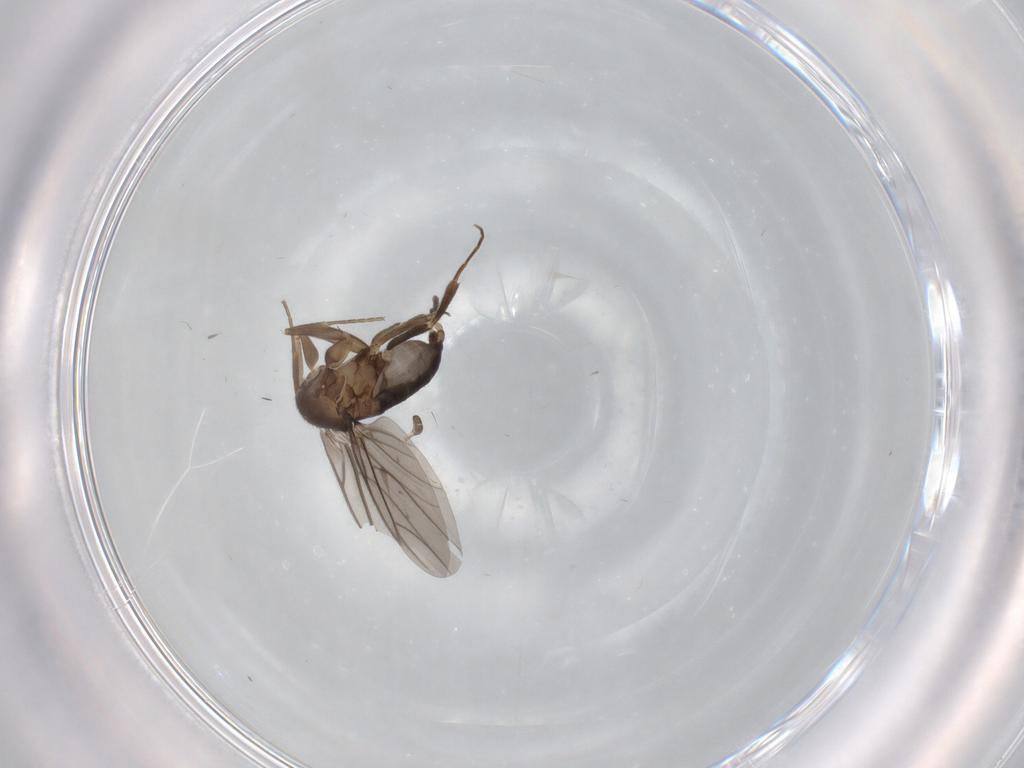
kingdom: Animalia
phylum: Arthropoda
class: Insecta
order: Diptera
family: Phoridae
